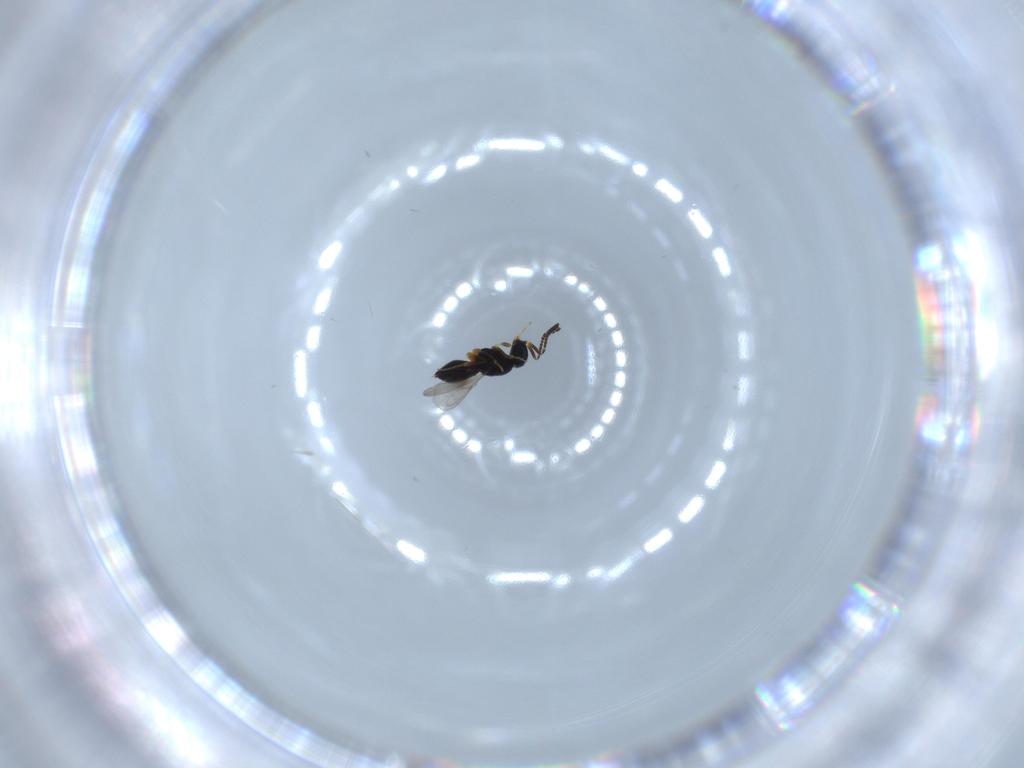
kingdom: Animalia
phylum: Arthropoda
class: Insecta
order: Hymenoptera
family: Scelionidae
